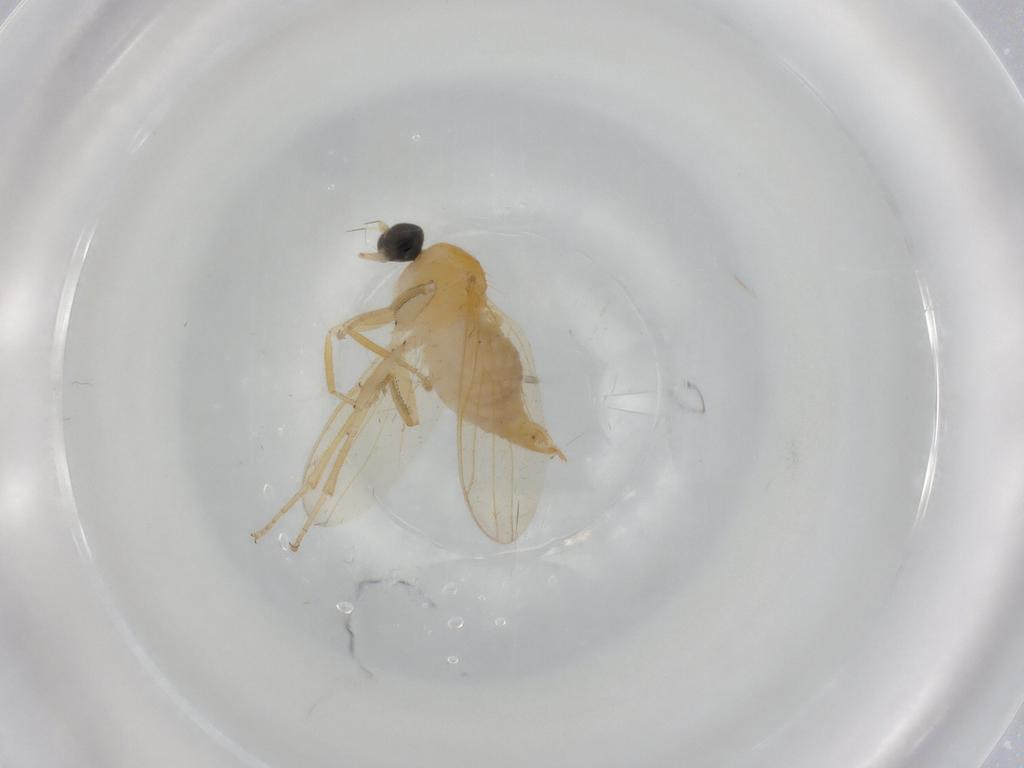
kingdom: Animalia
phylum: Arthropoda
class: Insecta
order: Diptera
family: Hybotidae
